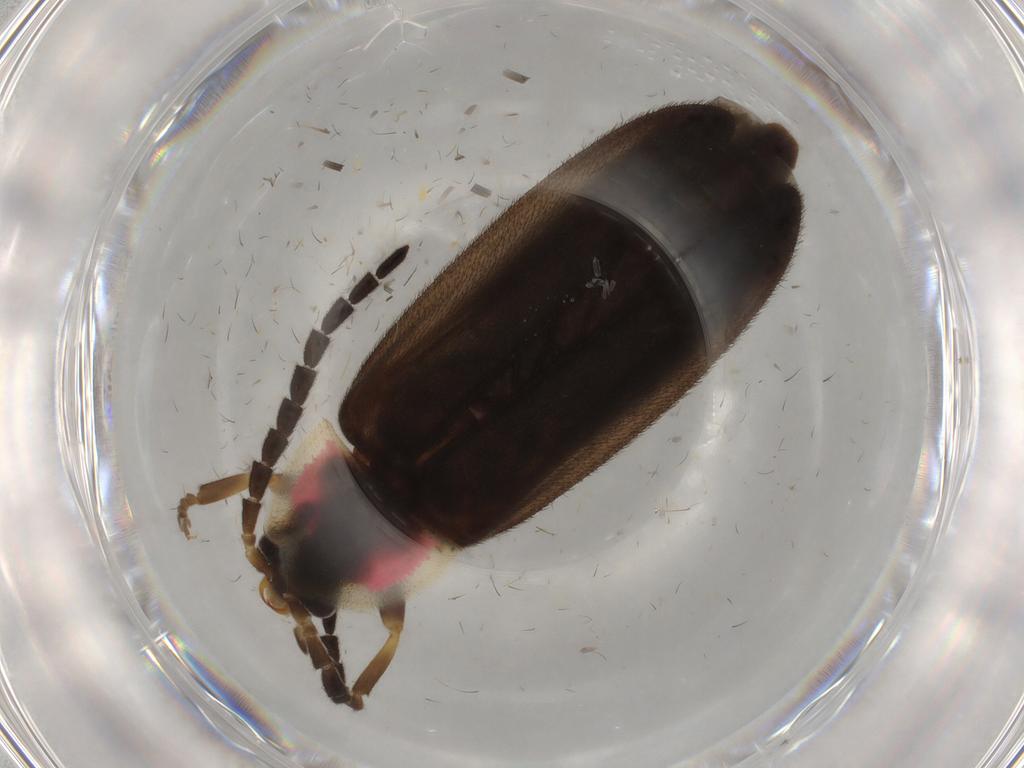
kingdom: Animalia
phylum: Arthropoda
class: Insecta
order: Coleoptera
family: Lampyridae
